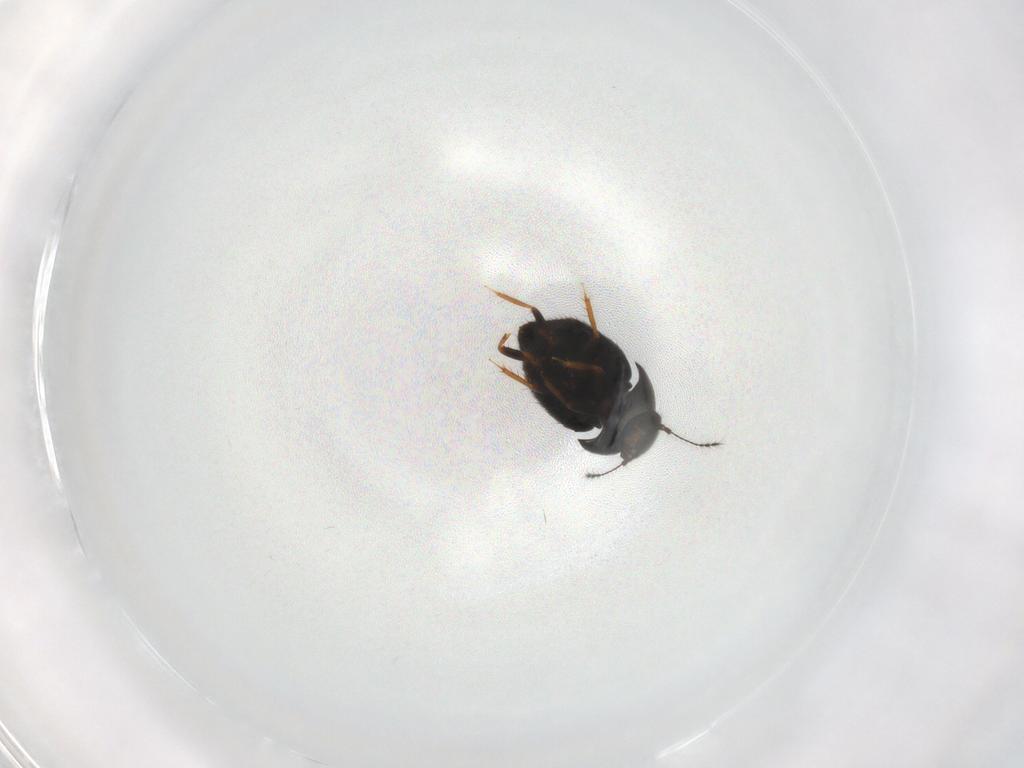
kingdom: Animalia
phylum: Arthropoda
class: Insecta
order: Coleoptera
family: Ptiliidae
